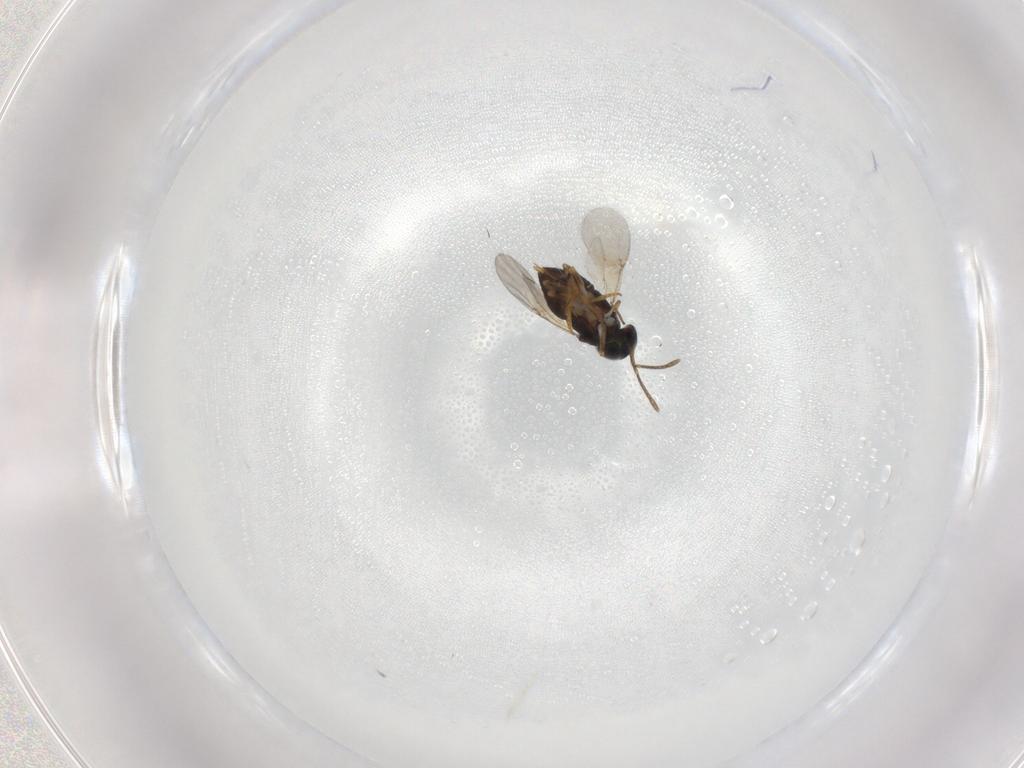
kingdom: Animalia
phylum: Arthropoda
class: Insecta
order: Hymenoptera
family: Encyrtidae
